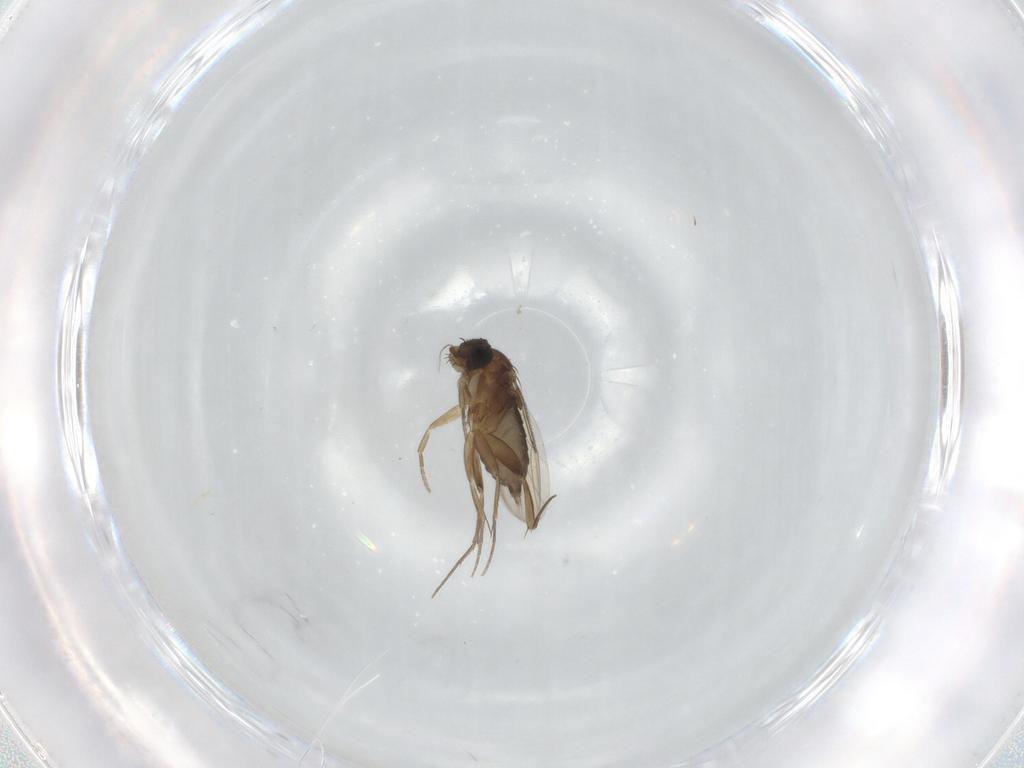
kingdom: Animalia
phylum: Arthropoda
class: Insecta
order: Diptera
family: Phoridae
